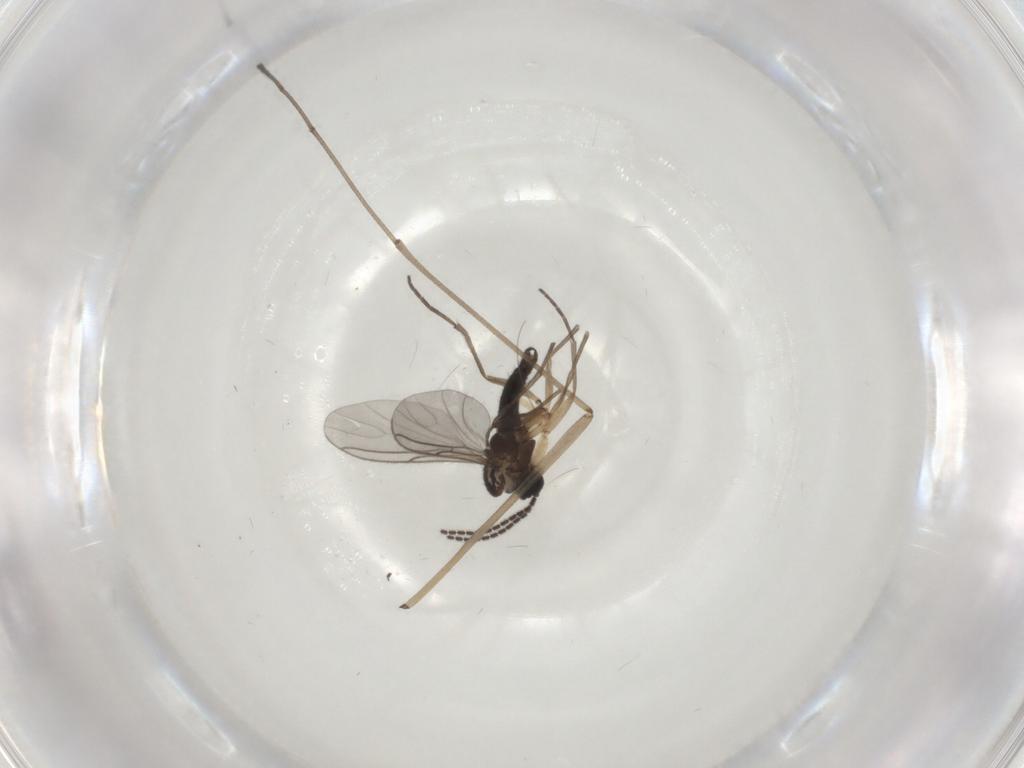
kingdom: Animalia
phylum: Arthropoda
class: Insecta
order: Diptera
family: Sciaridae
